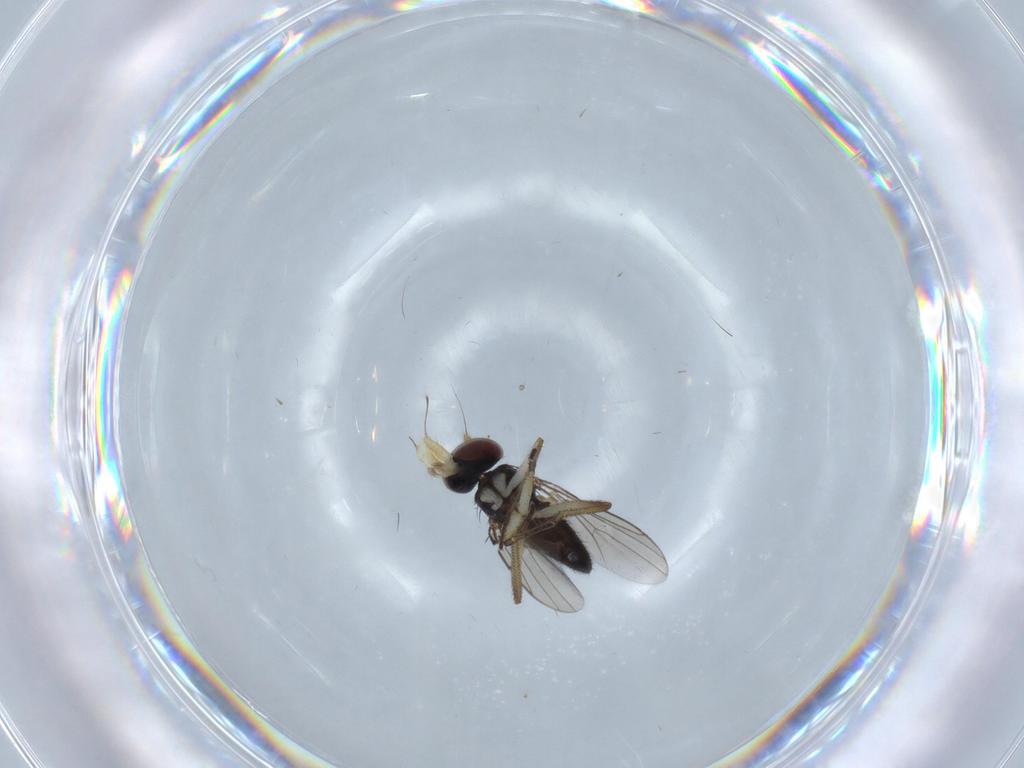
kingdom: Animalia
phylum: Arthropoda
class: Insecta
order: Diptera
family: Dolichopodidae
